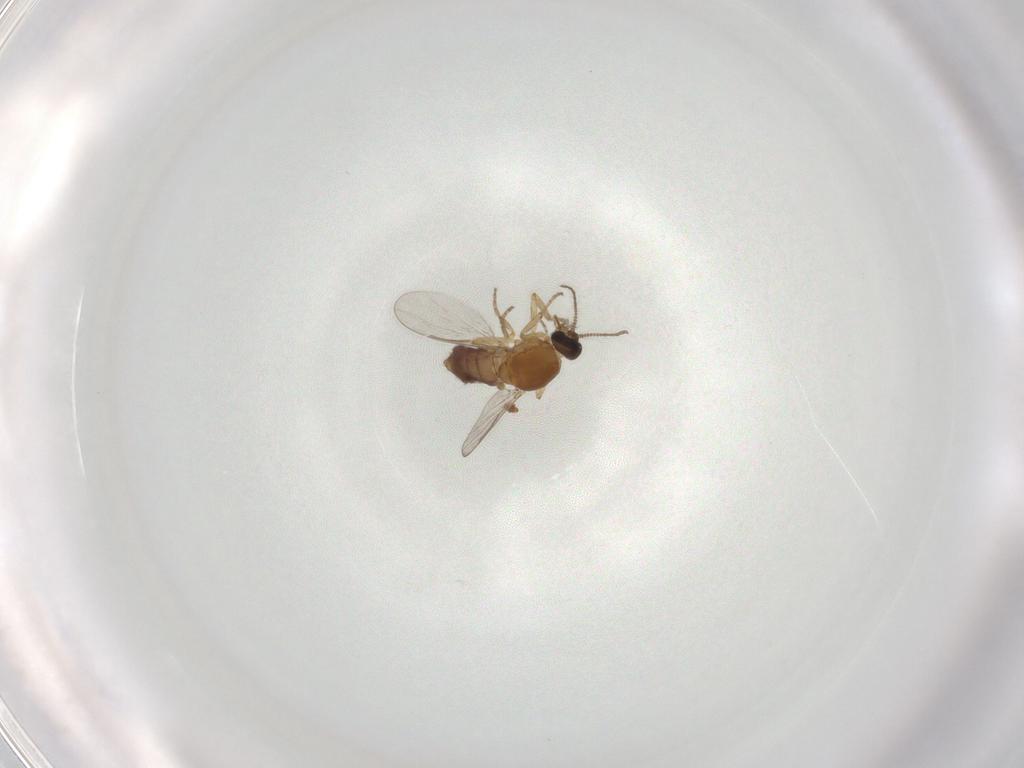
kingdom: Animalia
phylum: Arthropoda
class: Insecta
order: Diptera
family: Ceratopogonidae
